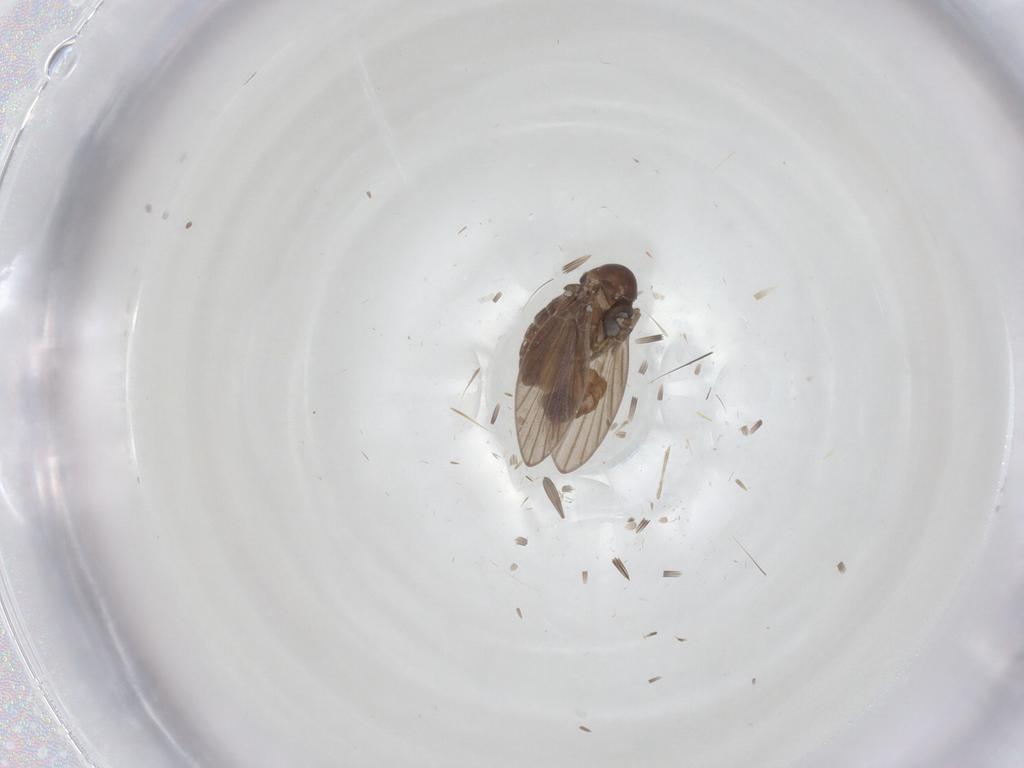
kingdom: Animalia
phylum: Arthropoda
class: Insecta
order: Diptera
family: Psychodidae
